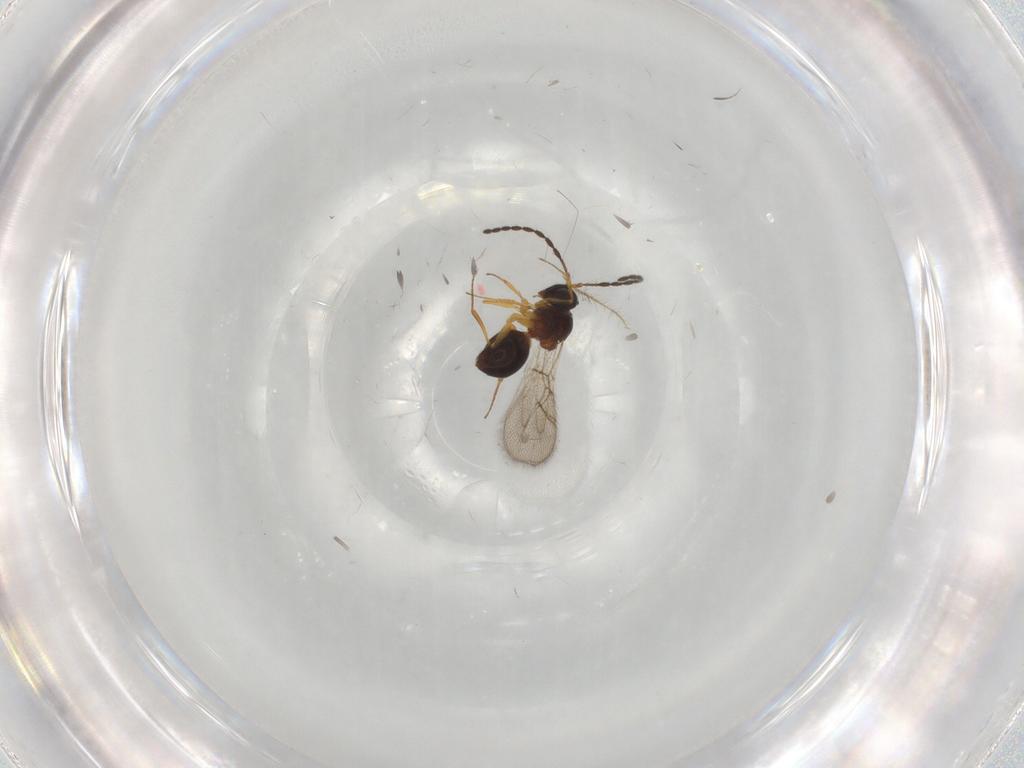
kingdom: Animalia
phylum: Arthropoda
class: Insecta
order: Hymenoptera
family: Figitidae
